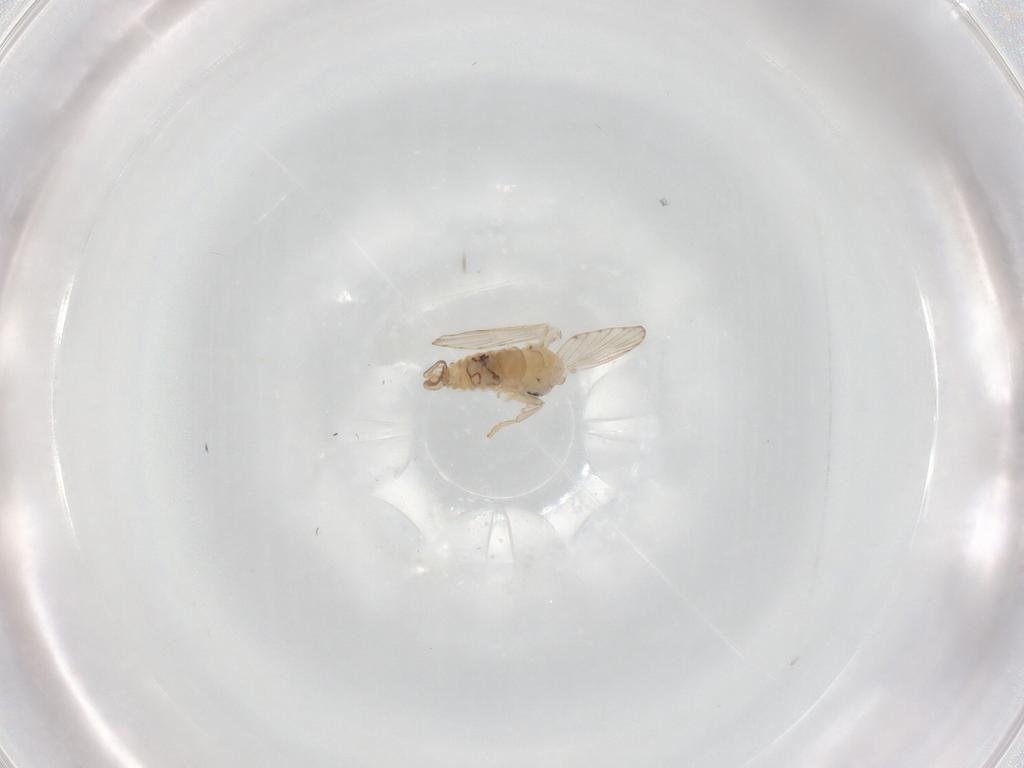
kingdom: Animalia
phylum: Arthropoda
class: Insecta
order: Diptera
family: Psychodidae
